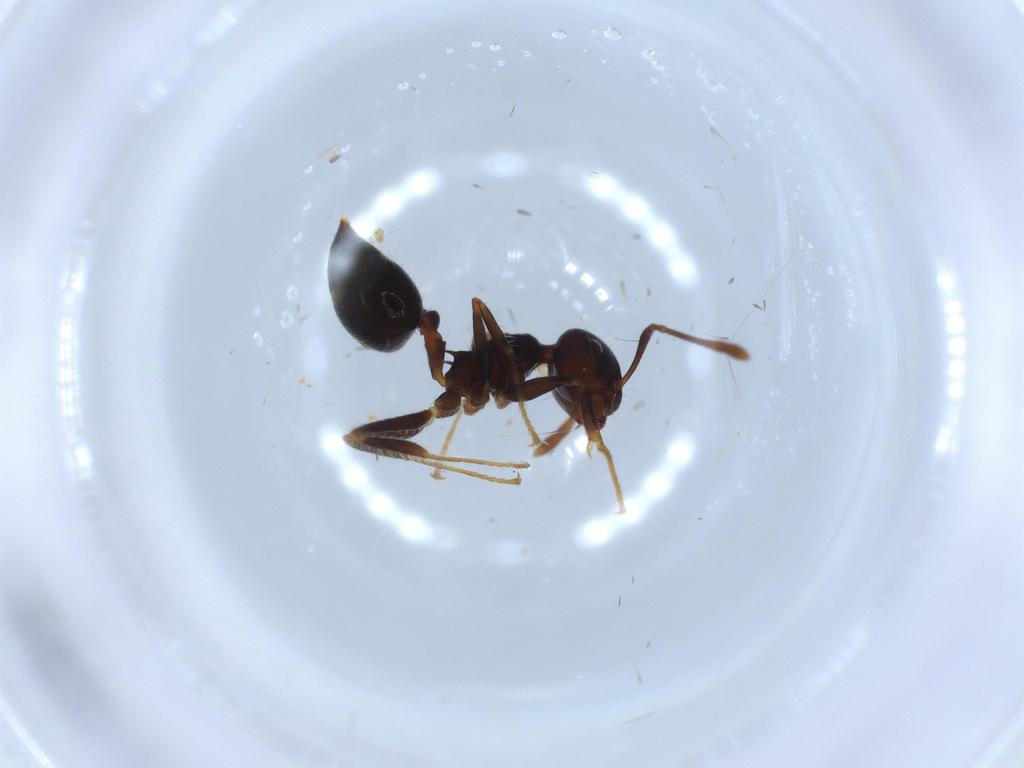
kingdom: Animalia
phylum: Arthropoda
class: Insecta
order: Hymenoptera
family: Formicidae
